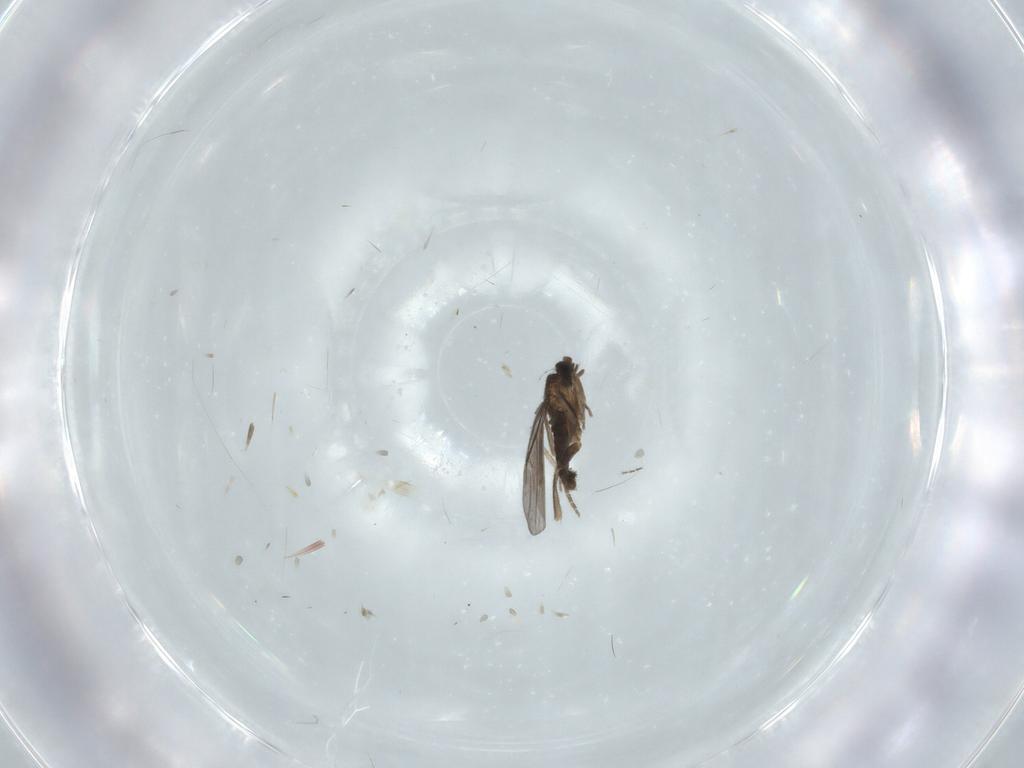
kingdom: Animalia
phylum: Arthropoda
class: Insecta
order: Diptera
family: Phoridae
